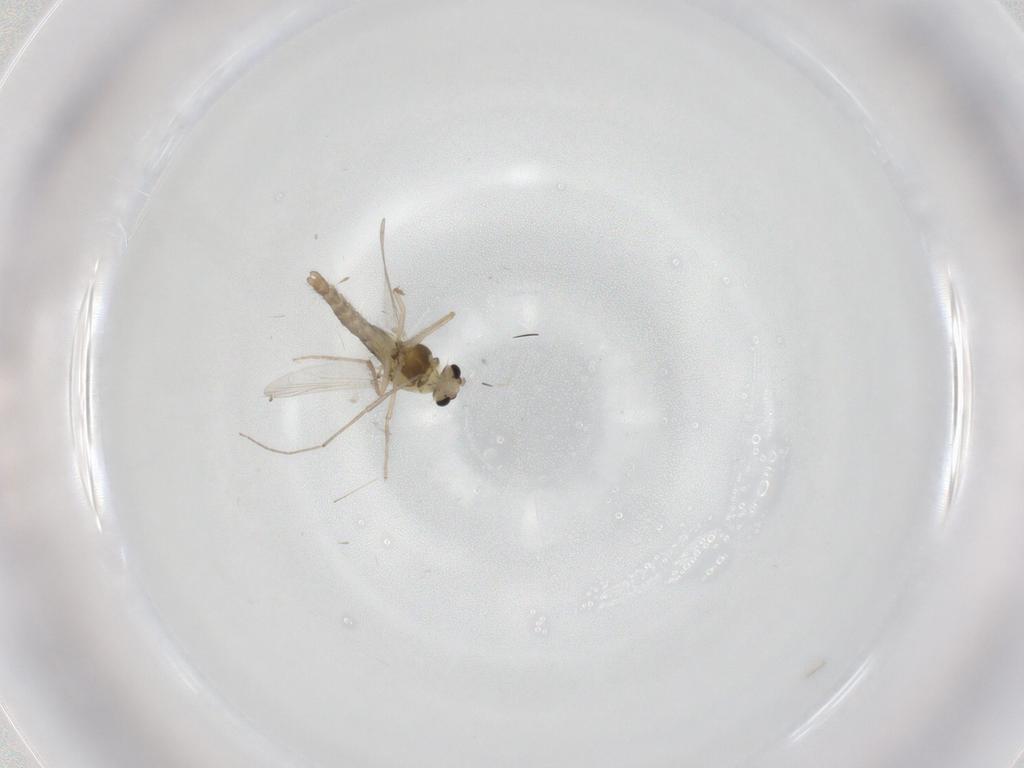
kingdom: Animalia
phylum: Arthropoda
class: Insecta
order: Diptera
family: Chironomidae
